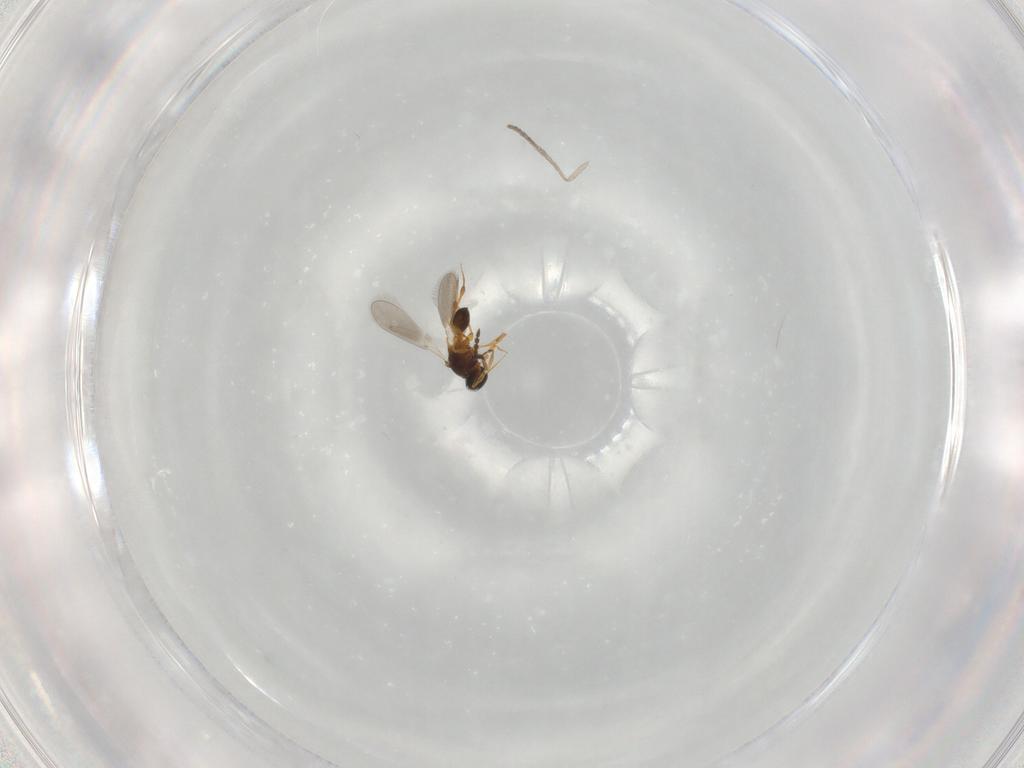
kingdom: Animalia
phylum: Arthropoda
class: Insecta
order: Hymenoptera
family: Platygastridae
